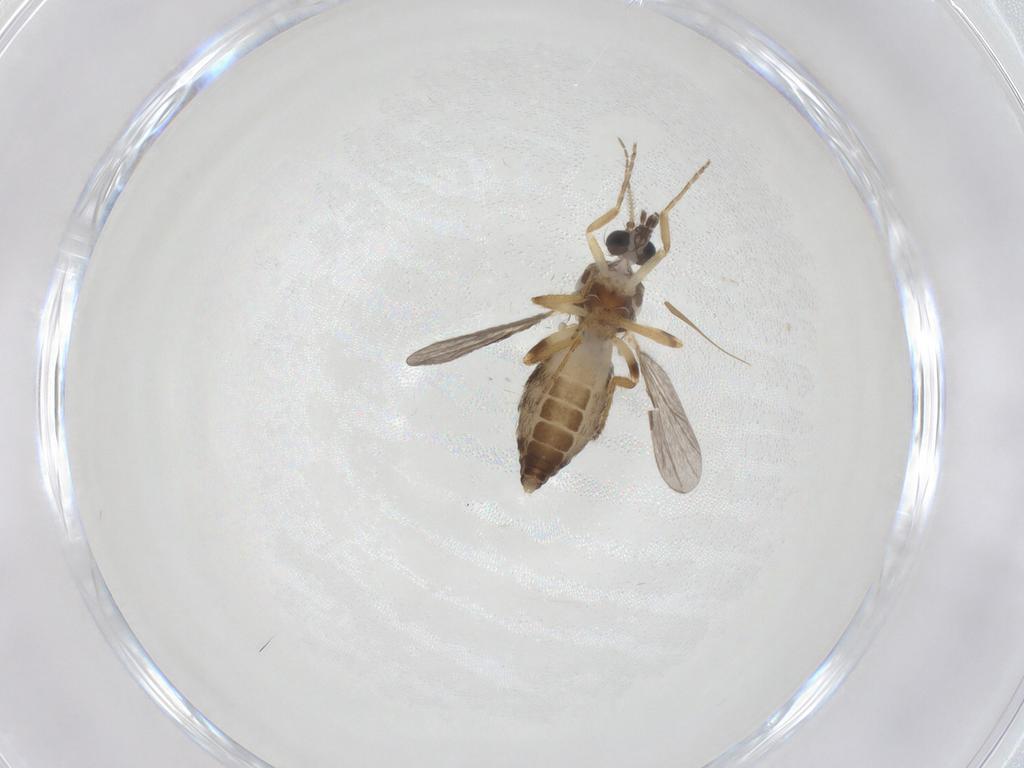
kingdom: Animalia
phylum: Arthropoda
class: Insecta
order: Diptera
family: Ceratopogonidae
